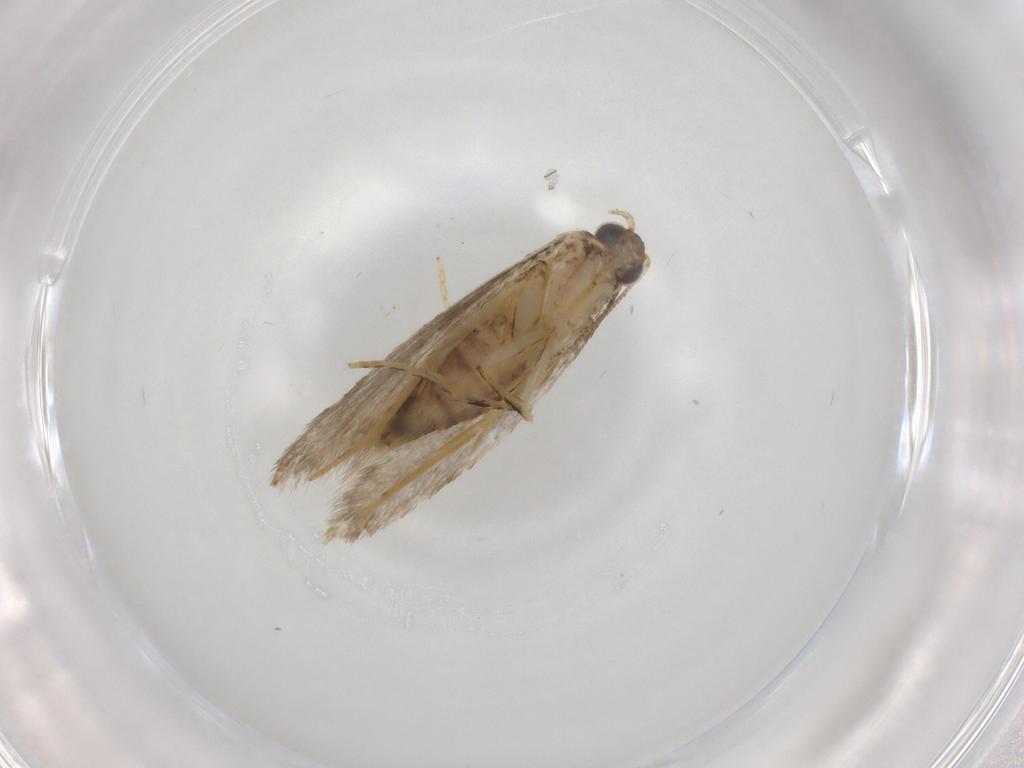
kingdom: Animalia
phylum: Arthropoda
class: Insecta
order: Lepidoptera
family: Tineidae
